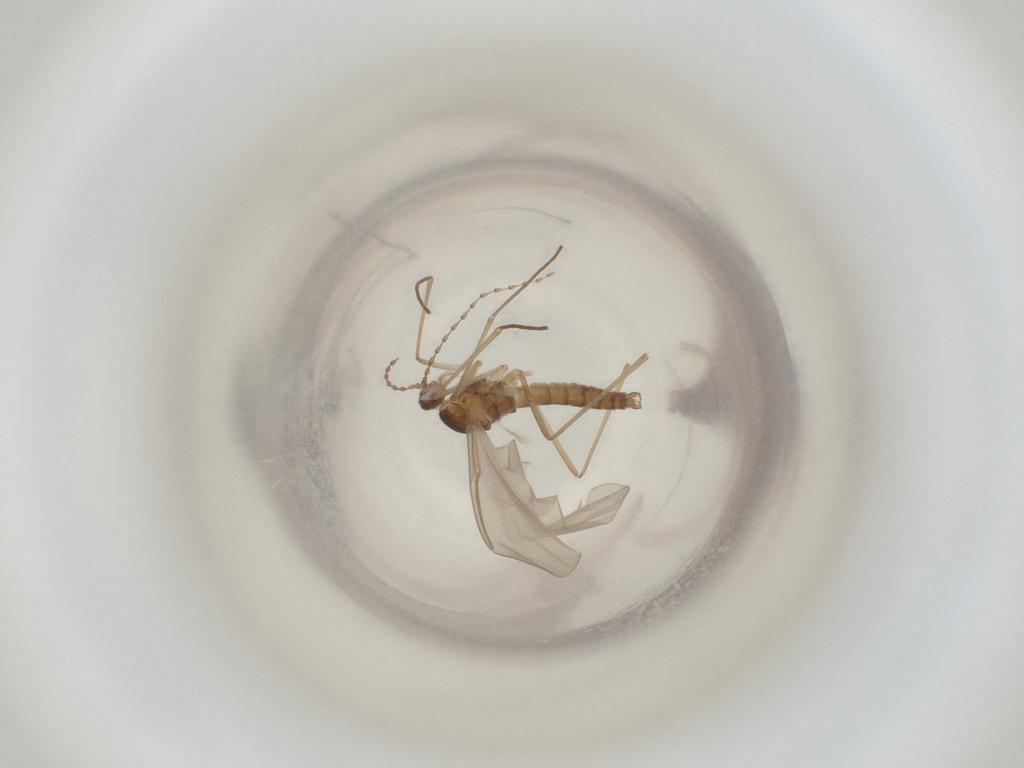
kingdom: Animalia
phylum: Arthropoda
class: Insecta
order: Diptera
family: Cecidomyiidae
